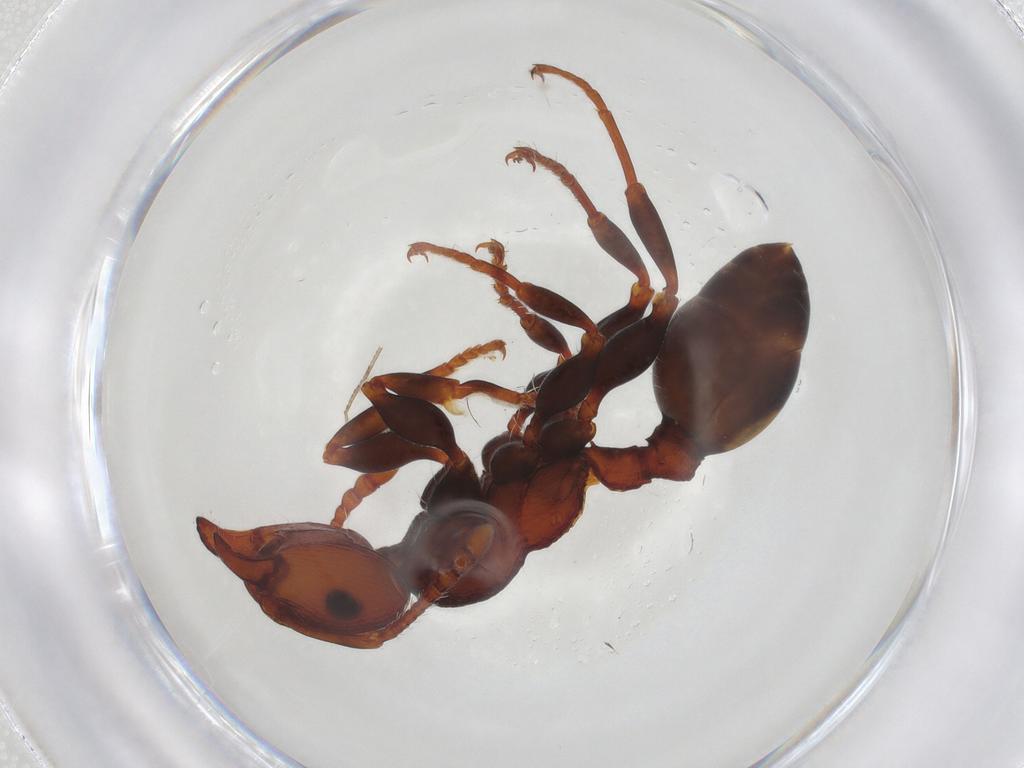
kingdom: Animalia
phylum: Arthropoda
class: Insecta
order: Hymenoptera
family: Formicidae
